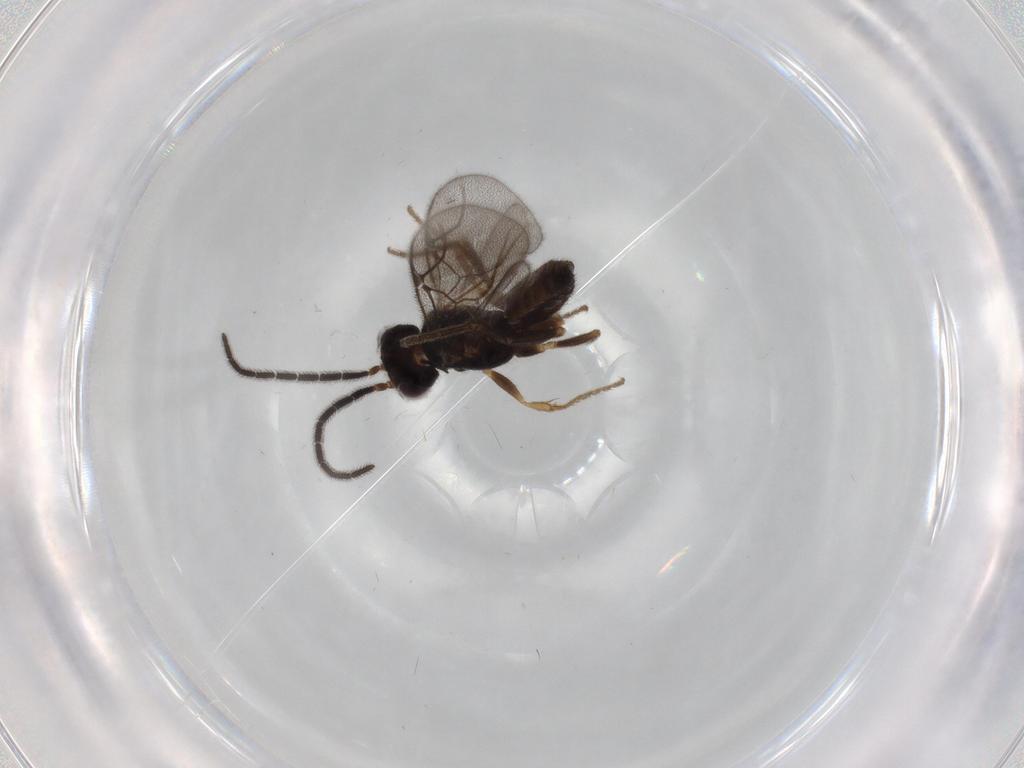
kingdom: Animalia
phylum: Arthropoda
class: Insecta
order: Hymenoptera
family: Dryinidae
